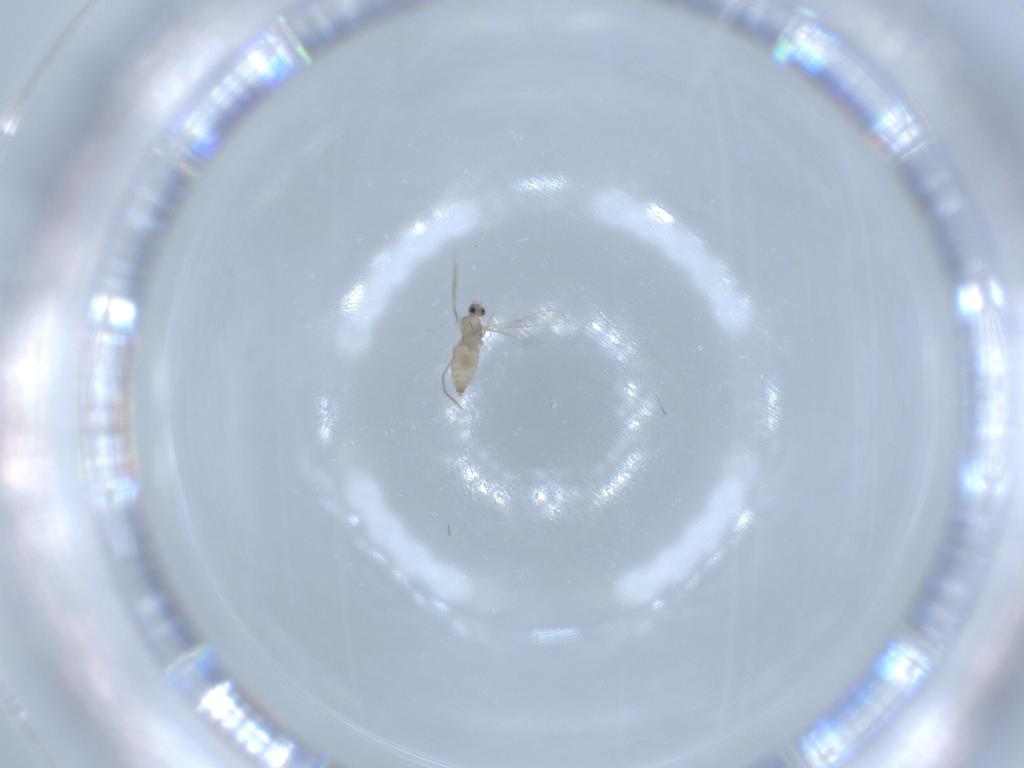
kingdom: Animalia
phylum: Arthropoda
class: Insecta
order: Diptera
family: Cecidomyiidae
